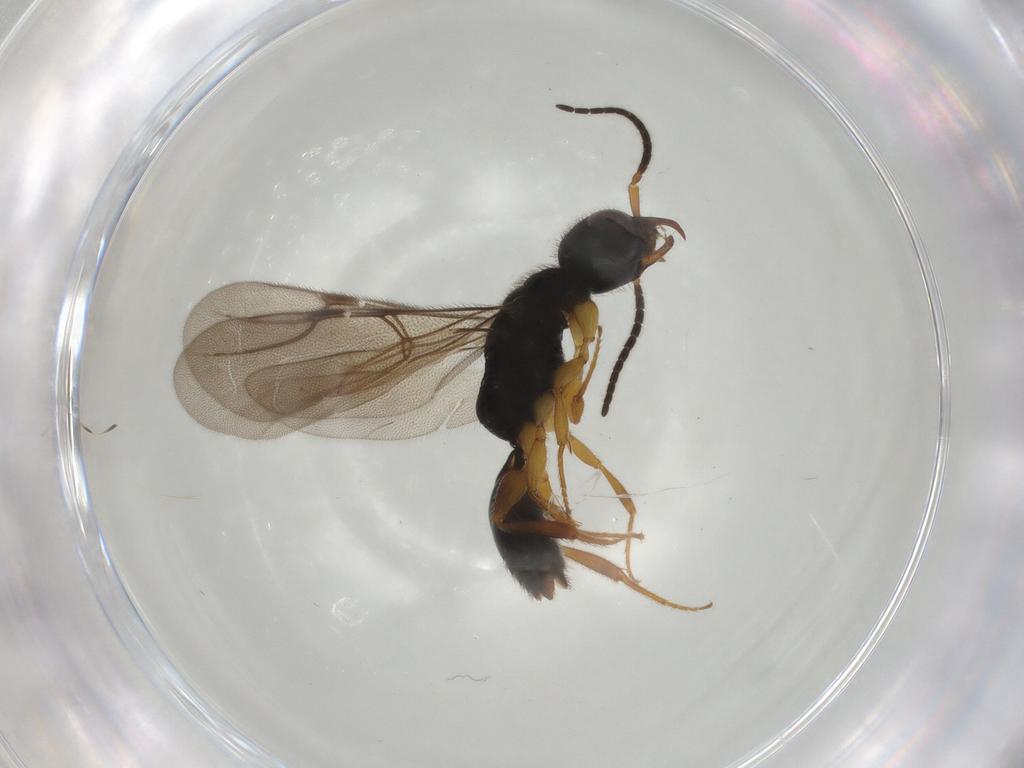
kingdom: Animalia
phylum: Arthropoda
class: Insecta
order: Hymenoptera
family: Bethylidae
